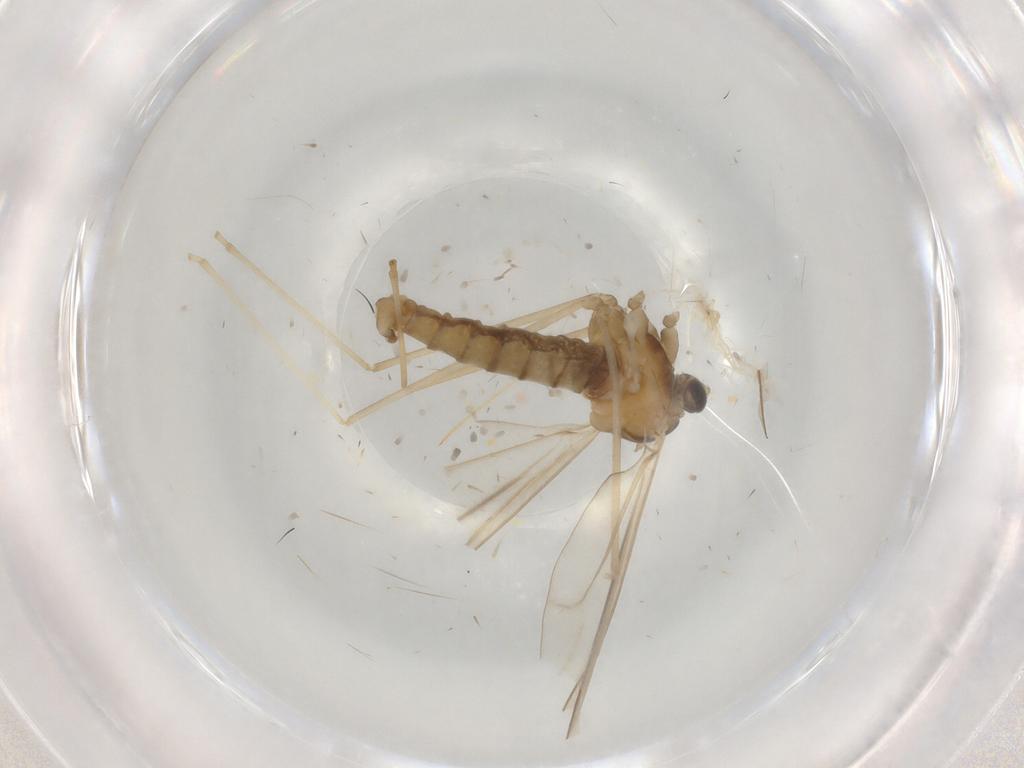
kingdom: Animalia
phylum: Arthropoda
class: Insecta
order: Diptera
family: Cecidomyiidae
